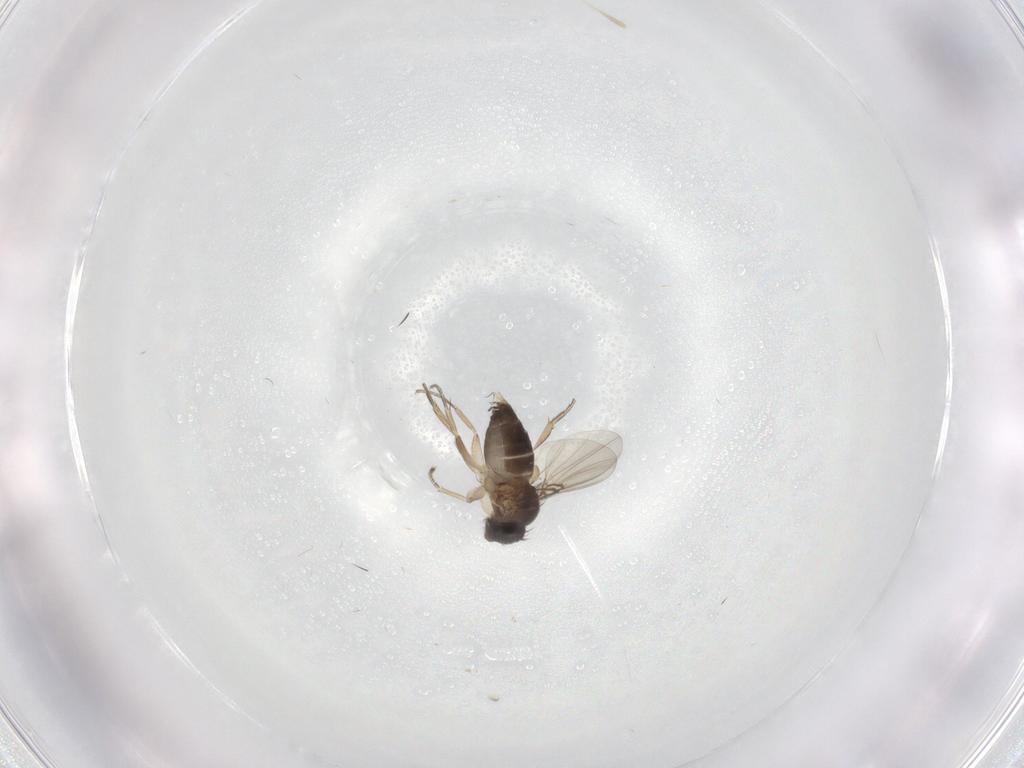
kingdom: Animalia
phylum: Arthropoda
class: Insecta
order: Diptera
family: Phoridae
